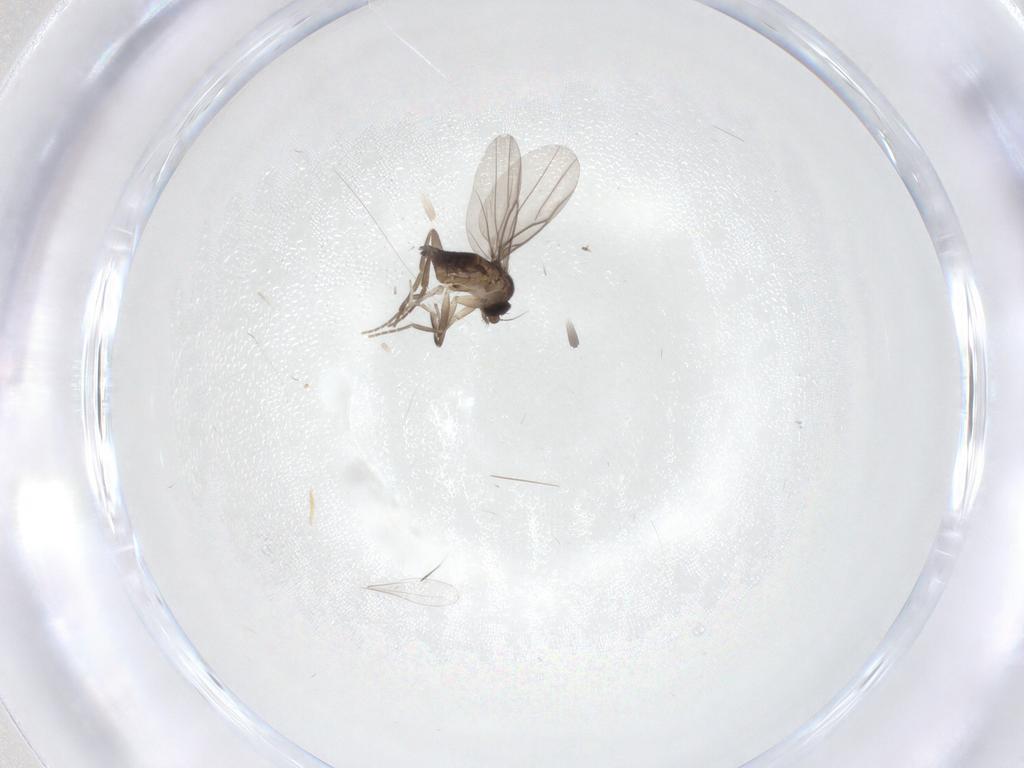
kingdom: Animalia
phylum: Arthropoda
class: Insecta
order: Diptera
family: Cecidomyiidae
